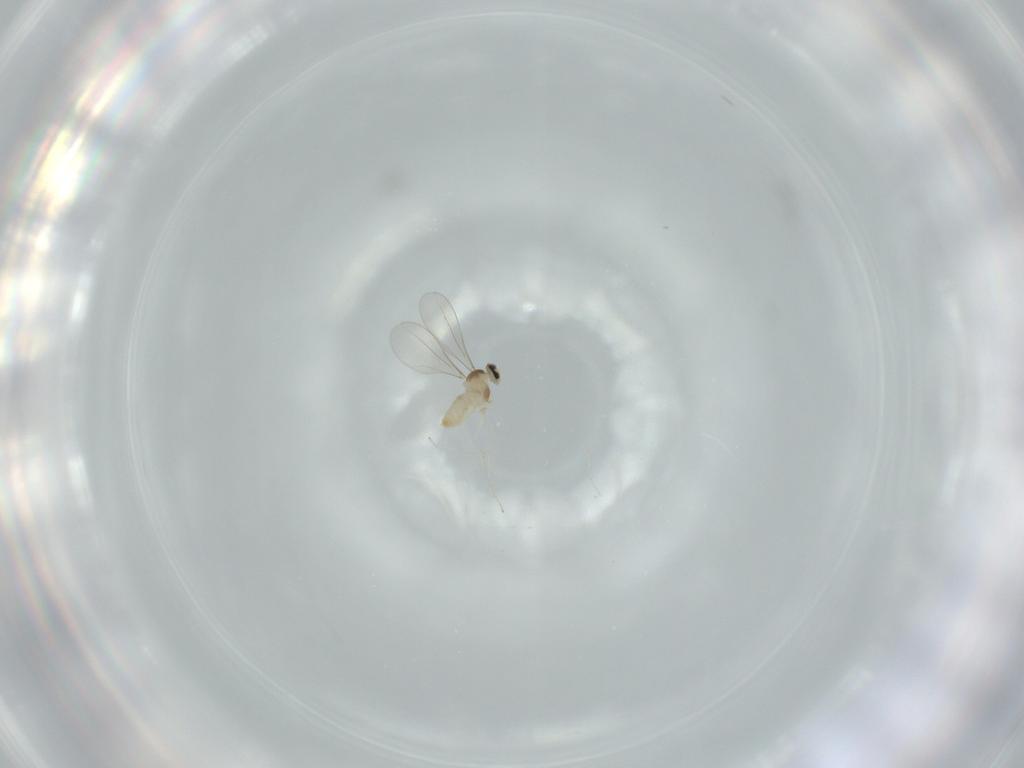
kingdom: Animalia
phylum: Arthropoda
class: Insecta
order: Diptera
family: Cecidomyiidae
